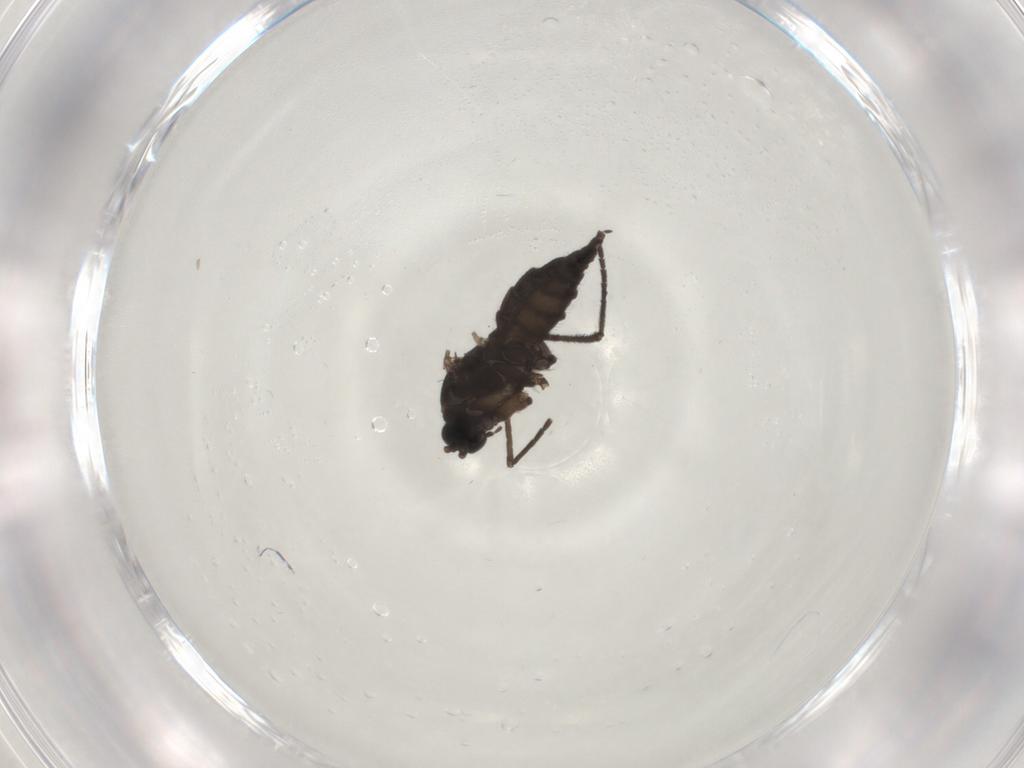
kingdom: Animalia
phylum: Arthropoda
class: Insecta
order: Diptera
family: Sciaridae
